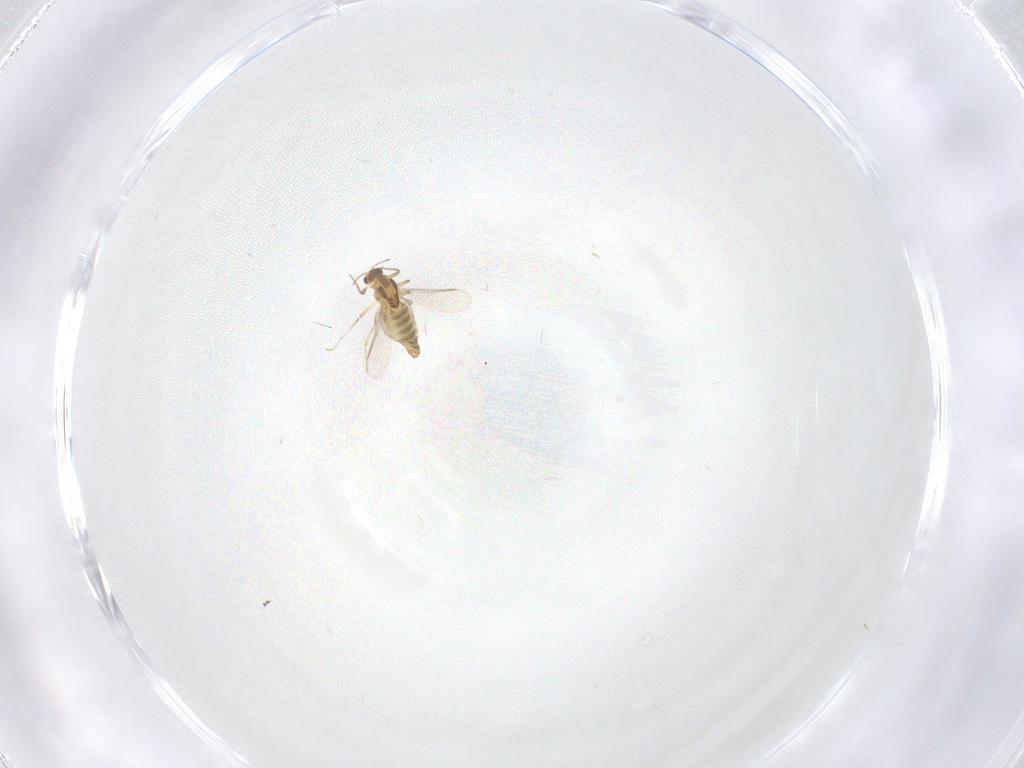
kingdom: Animalia
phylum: Arthropoda
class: Insecta
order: Diptera
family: Chironomidae
